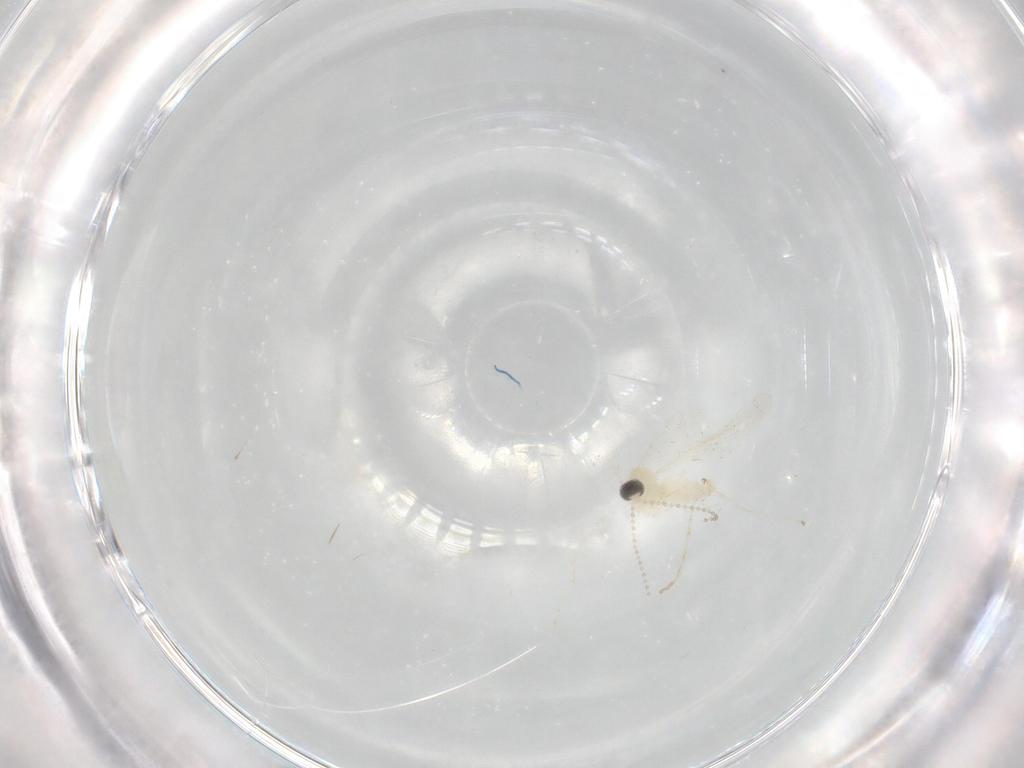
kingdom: Animalia
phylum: Arthropoda
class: Insecta
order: Diptera
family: Cecidomyiidae
